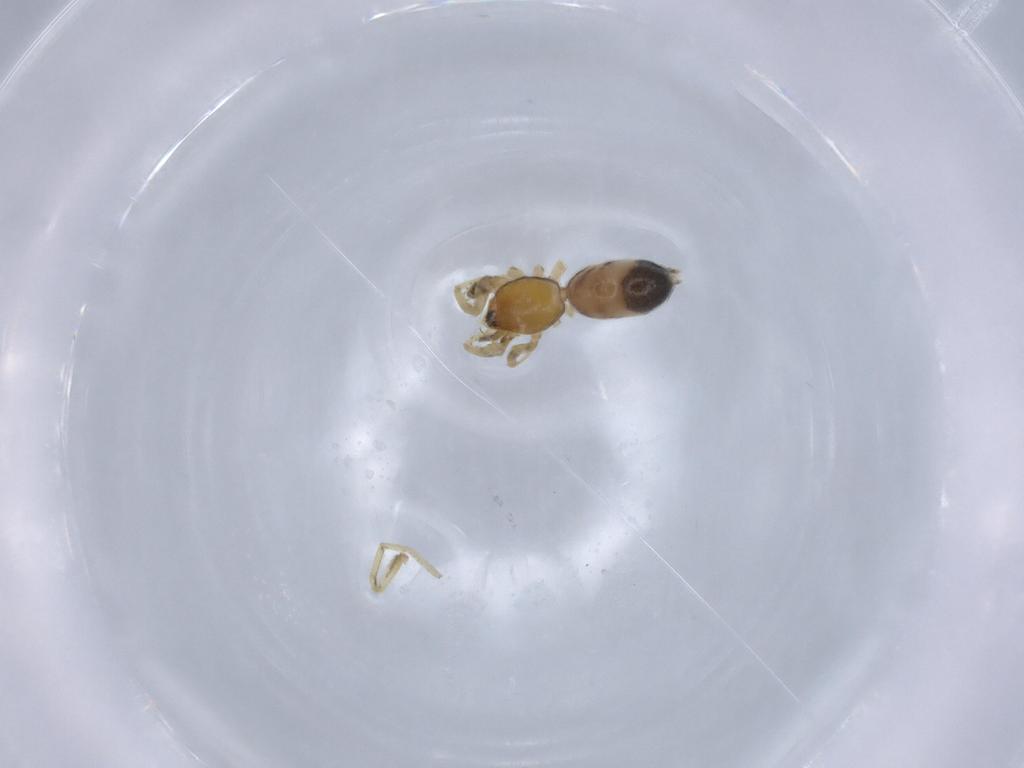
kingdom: Animalia
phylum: Arthropoda
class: Arachnida
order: Araneae
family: Gnaphosidae
